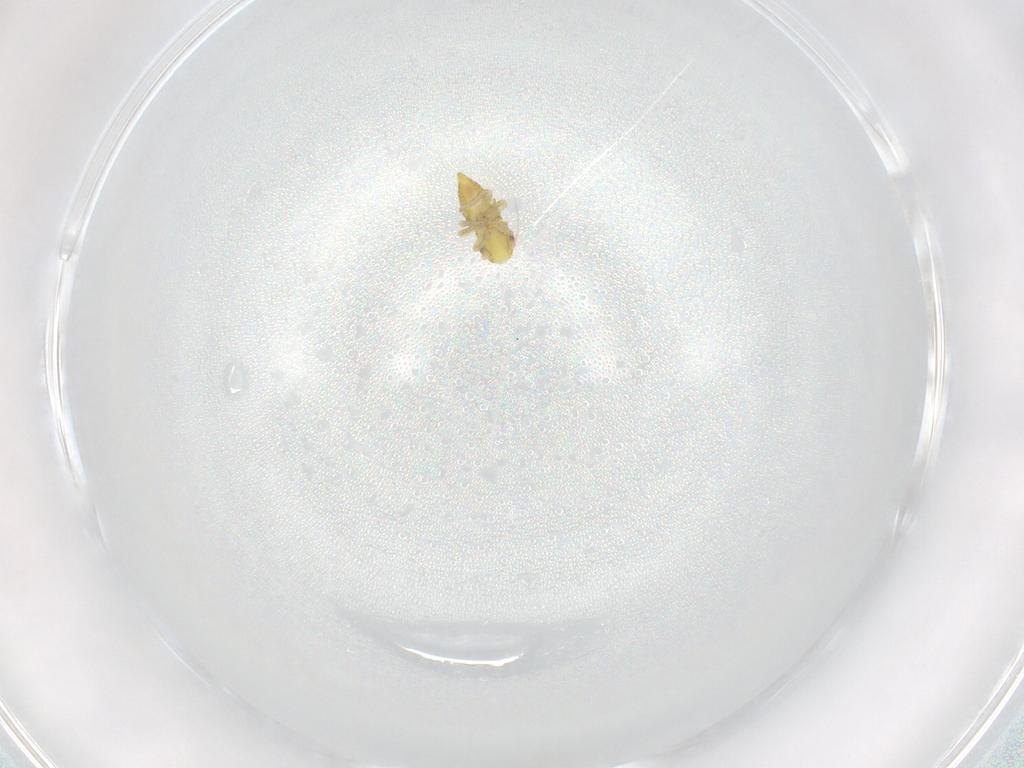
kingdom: Animalia
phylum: Arthropoda
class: Insecta
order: Hemiptera
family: Cicadellidae
